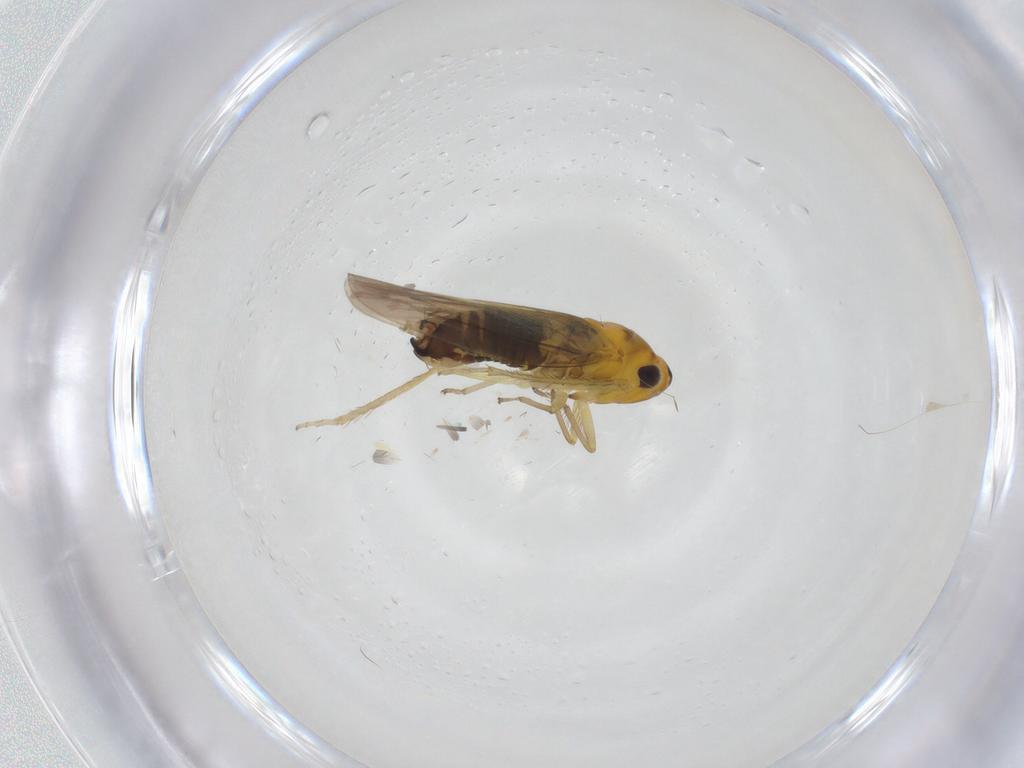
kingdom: Animalia
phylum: Arthropoda
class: Insecta
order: Hemiptera
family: Cicadellidae
